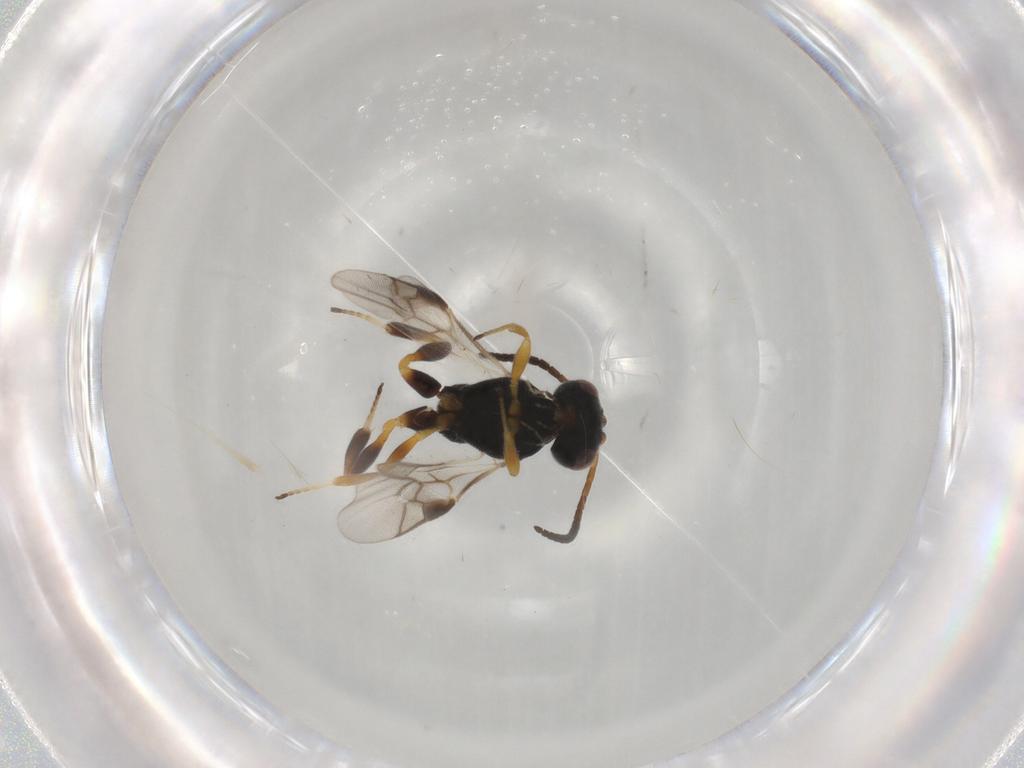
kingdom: Animalia
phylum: Arthropoda
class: Insecta
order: Hymenoptera
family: Braconidae
